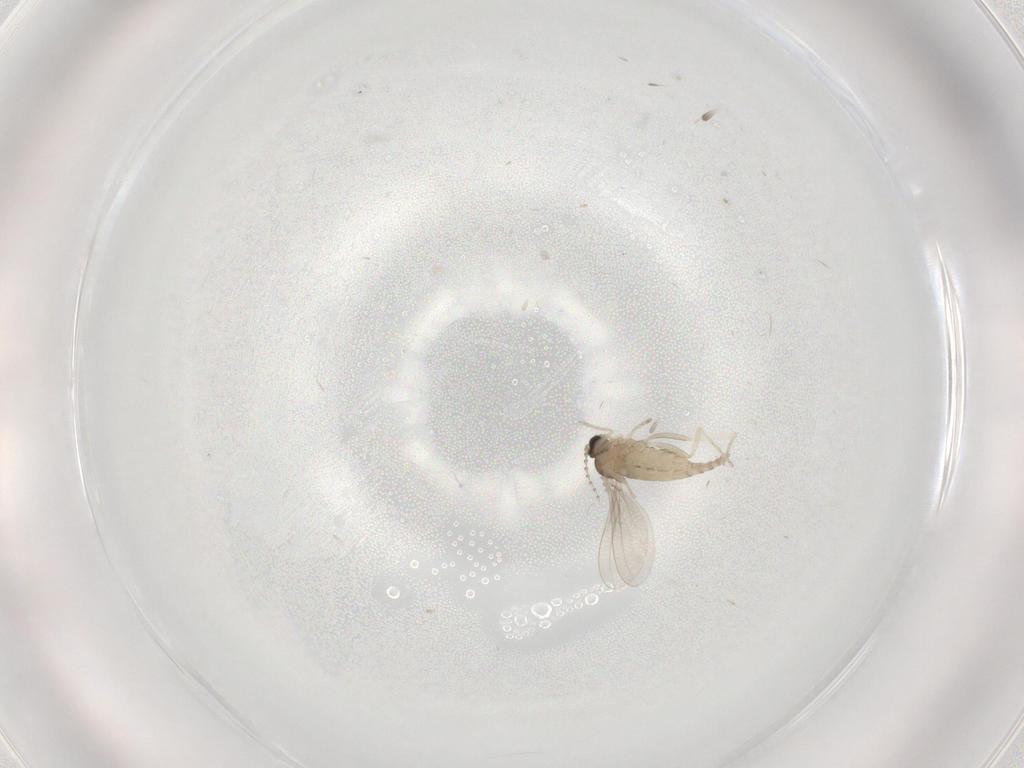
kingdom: Animalia
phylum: Arthropoda
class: Insecta
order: Diptera
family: Cecidomyiidae
